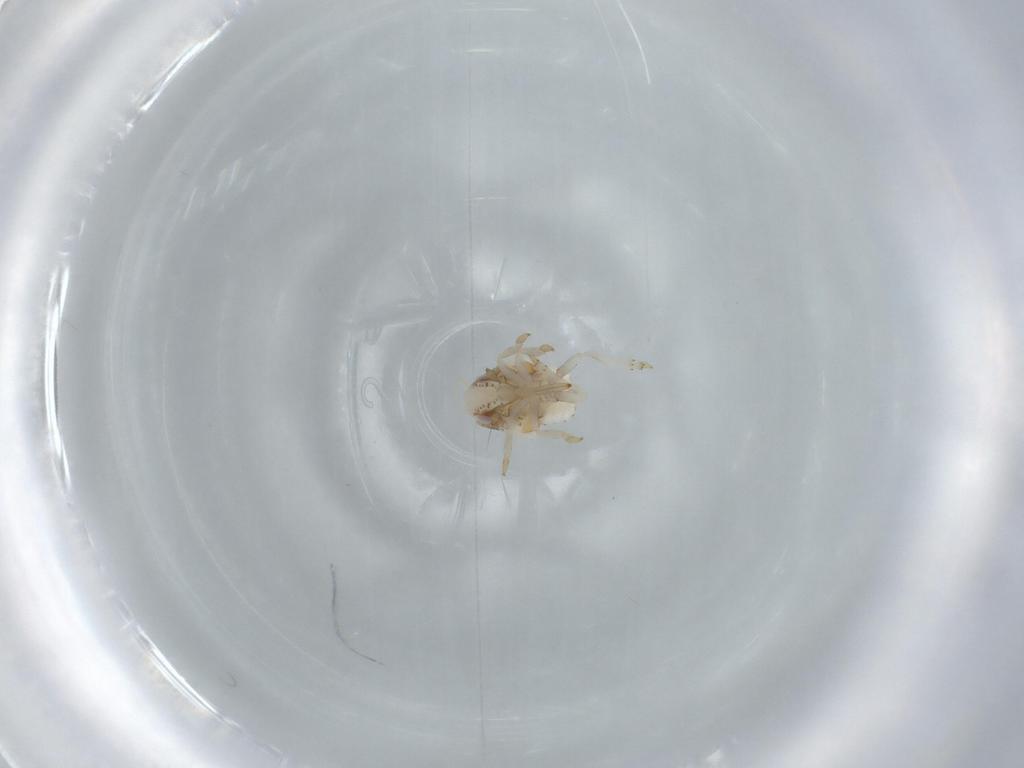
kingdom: Animalia
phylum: Arthropoda
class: Insecta
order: Hemiptera
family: Acanaloniidae
